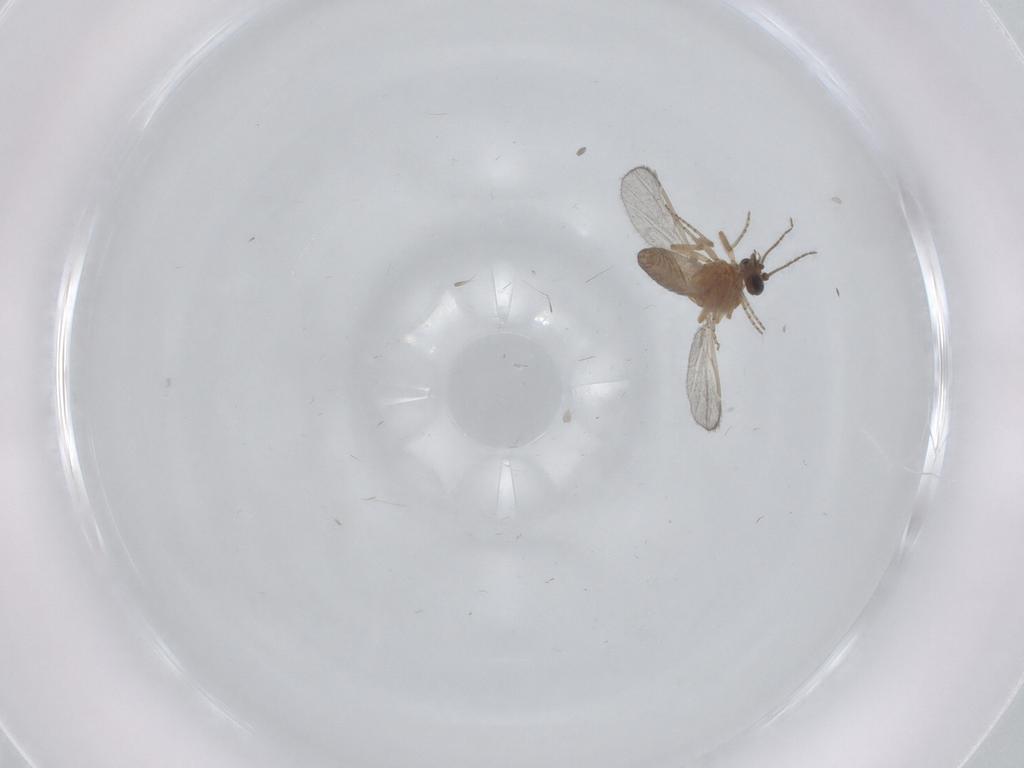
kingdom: Animalia
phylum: Arthropoda
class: Insecta
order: Diptera
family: Ceratopogonidae
